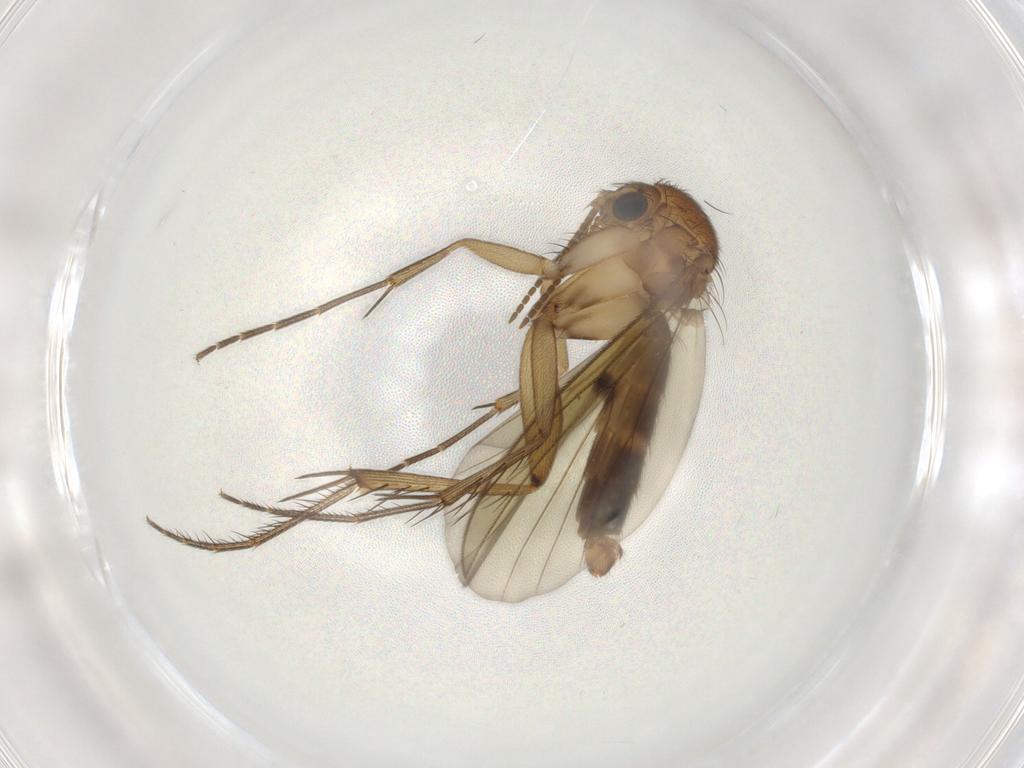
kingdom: Animalia
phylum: Arthropoda
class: Insecta
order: Diptera
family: Mycetophilidae
